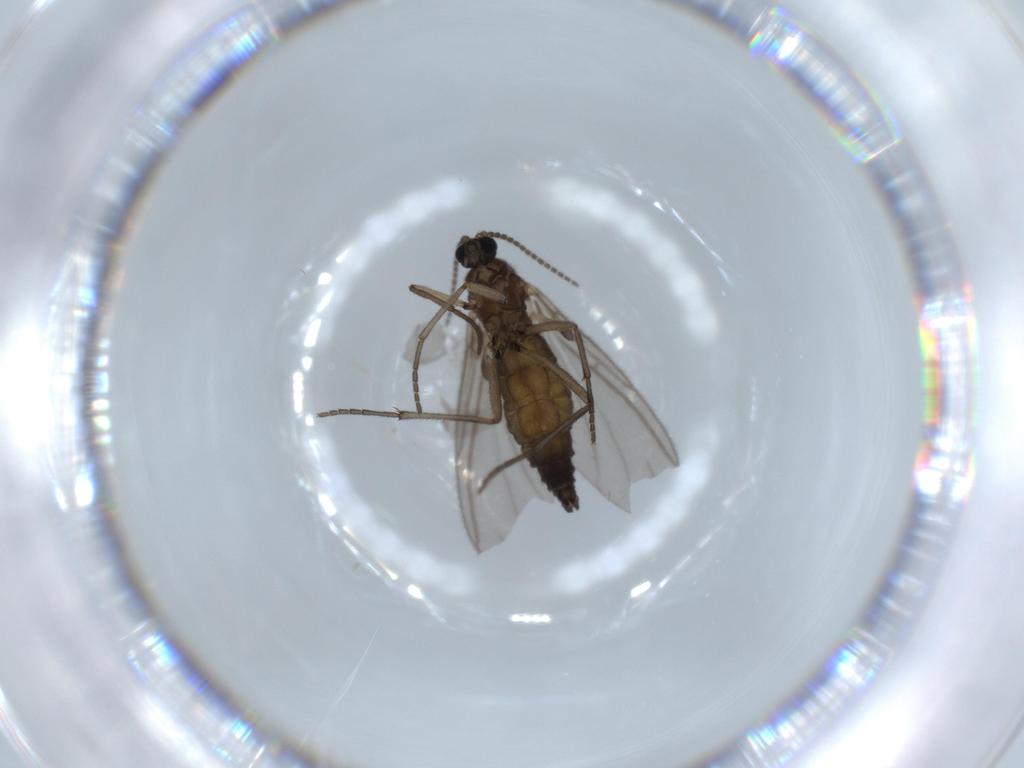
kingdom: Animalia
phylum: Arthropoda
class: Insecta
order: Diptera
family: Sciaridae
